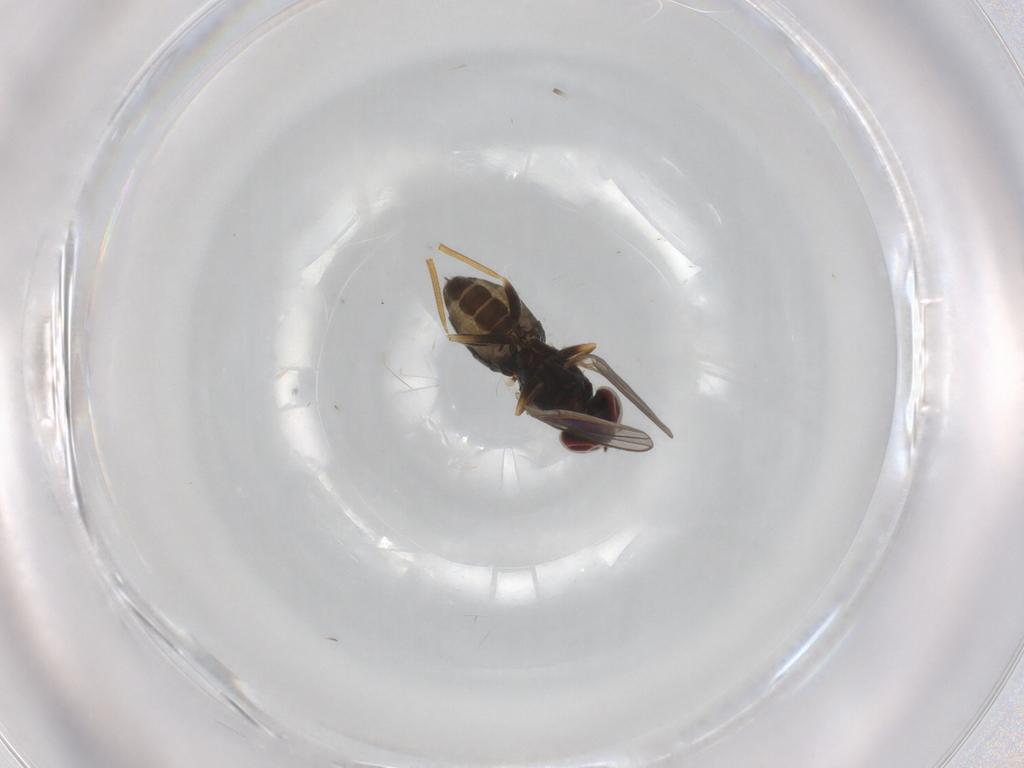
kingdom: Animalia
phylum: Arthropoda
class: Insecta
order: Diptera
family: Dolichopodidae
